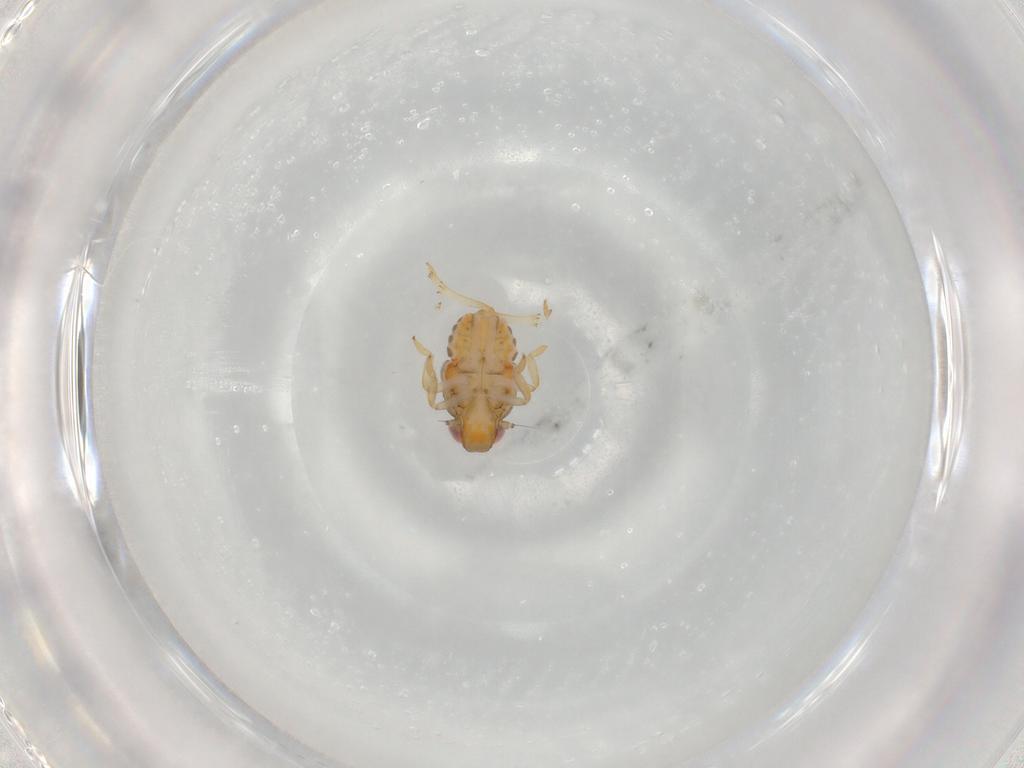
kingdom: Animalia
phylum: Arthropoda
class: Insecta
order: Hemiptera
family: Issidae
